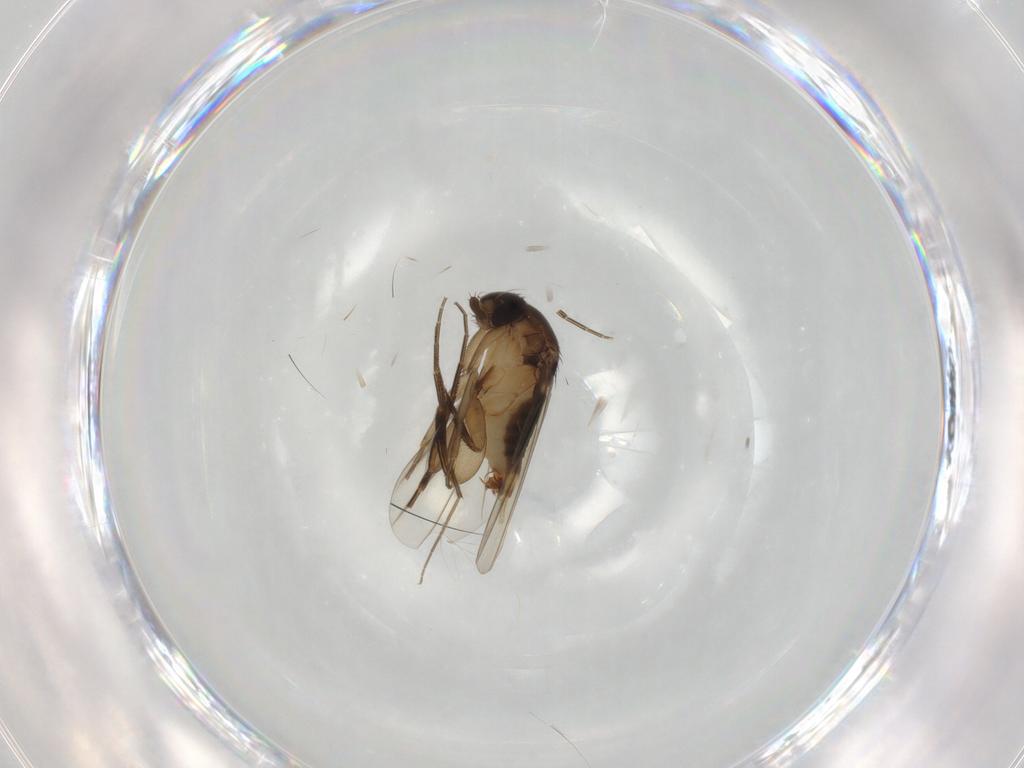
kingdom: Animalia
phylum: Arthropoda
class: Insecta
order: Diptera
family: Phoridae
